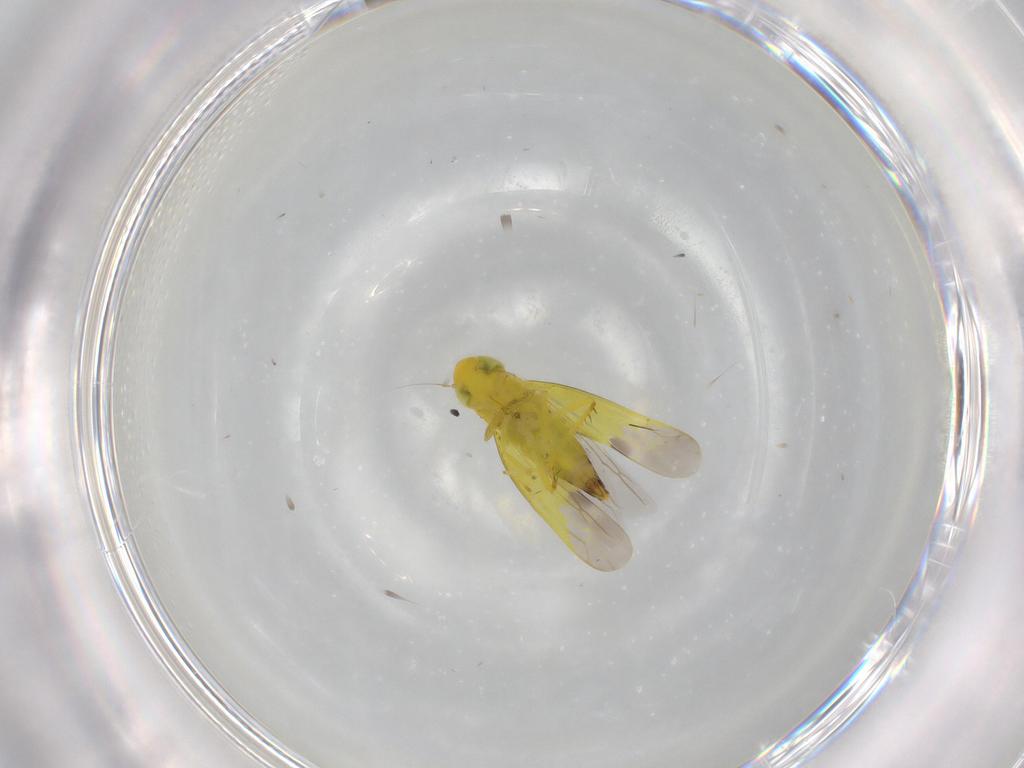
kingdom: Animalia
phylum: Arthropoda
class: Insecta
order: Hemiptera
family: Cicadellidae
